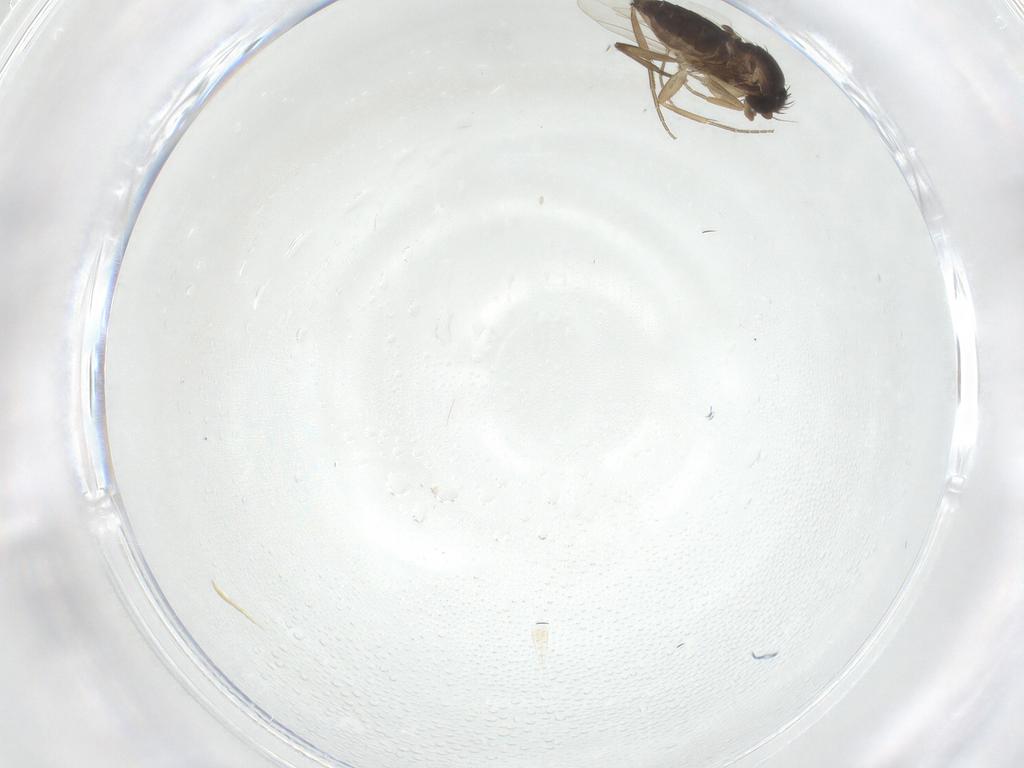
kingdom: Animalia
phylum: Arthropoda
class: Insecta
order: Diptera
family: Phoridae
